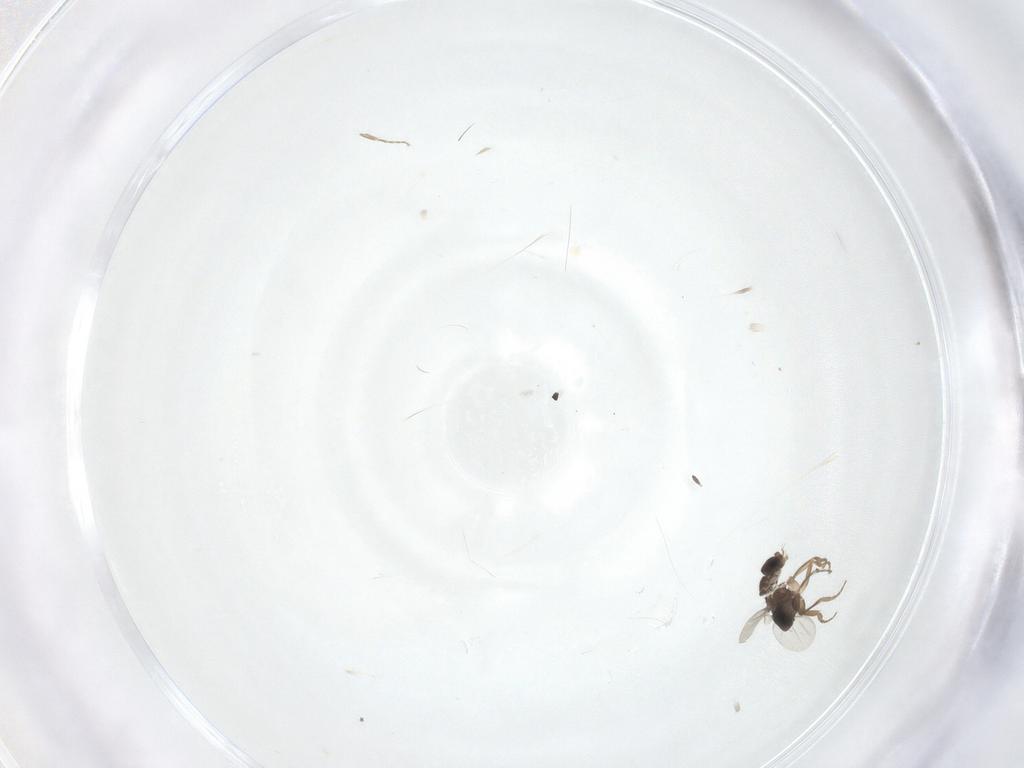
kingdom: Animalia
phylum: Arthropoda
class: Insecta
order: Diptera
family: Phoridae
